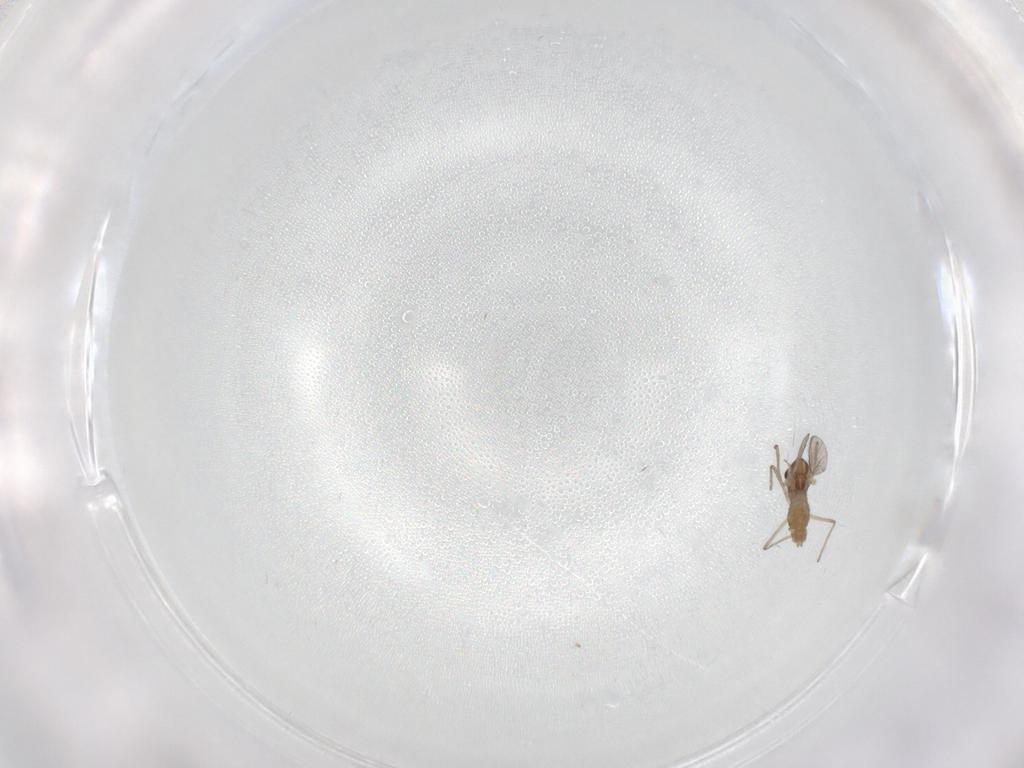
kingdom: Animalia
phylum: Arthropoda
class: Insecta
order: Diptera
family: Chironomidae
